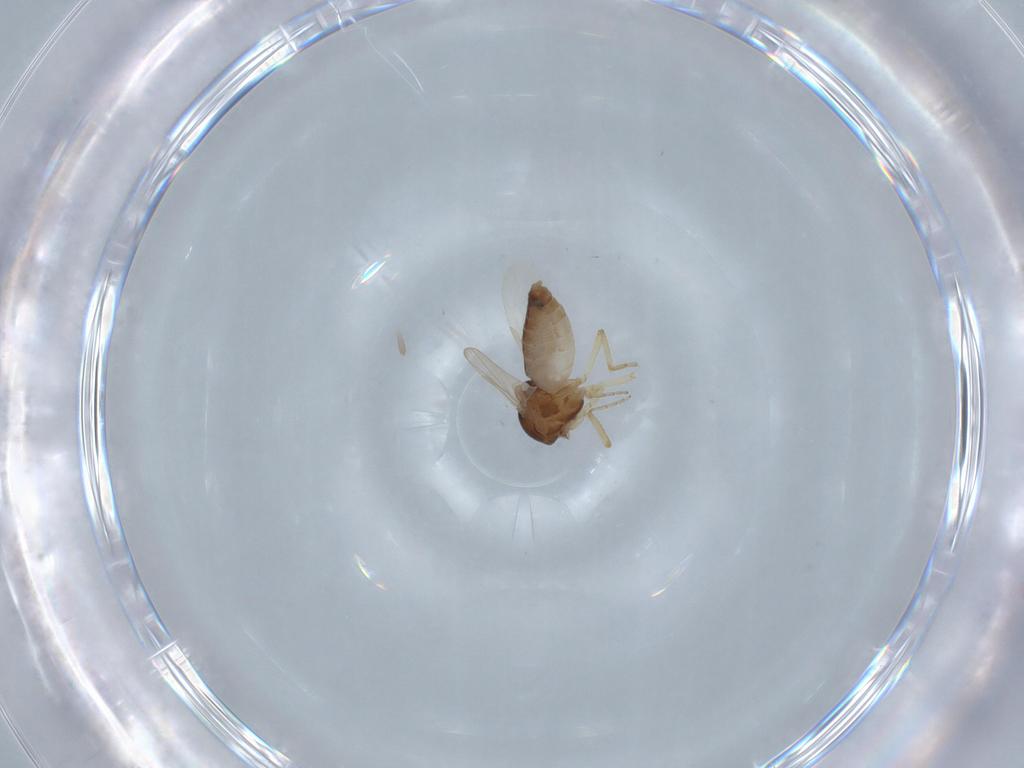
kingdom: Animalia
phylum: Arthropoda
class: Insecta
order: Diptera
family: Ceratopogonidae
